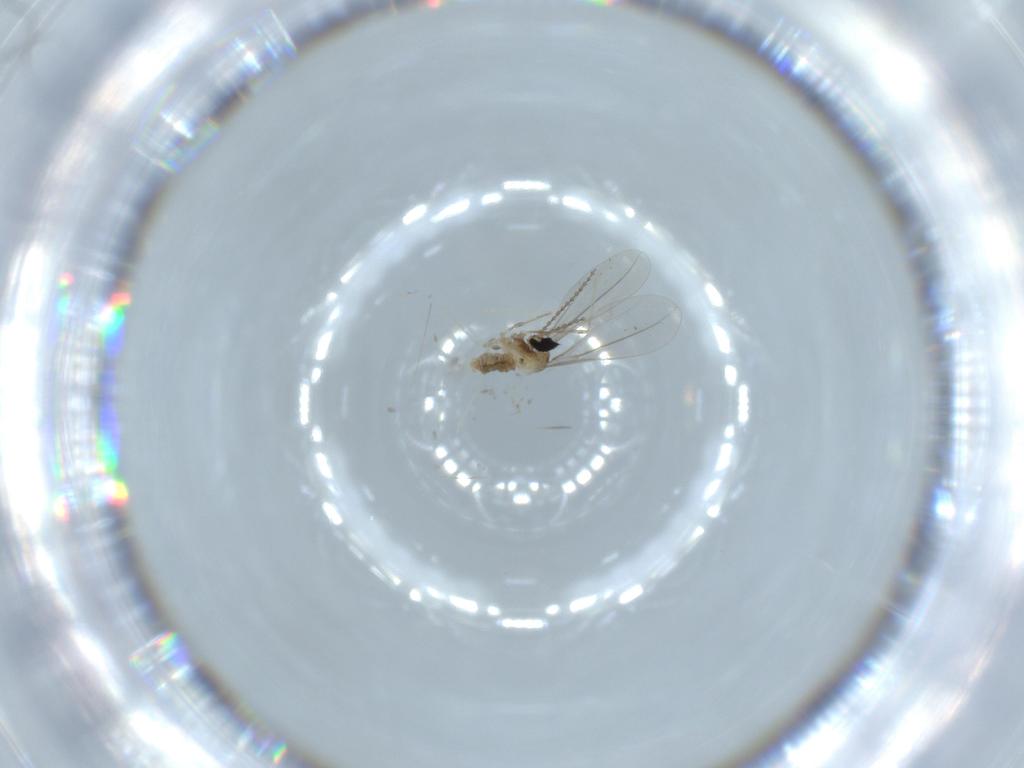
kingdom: Animalia
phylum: Arthropoda
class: Insecta
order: Diptera
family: Cecidomyiidae
